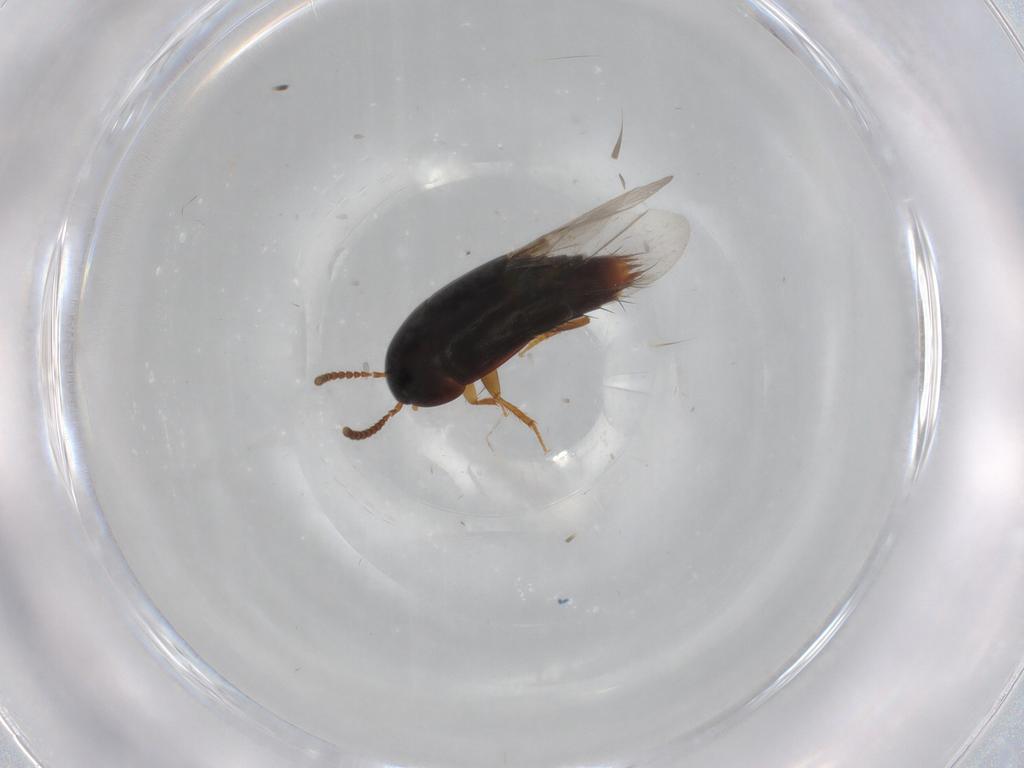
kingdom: Animalia
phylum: Arthropoda
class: Insecta
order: Coleoptera
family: Staphylinidae
